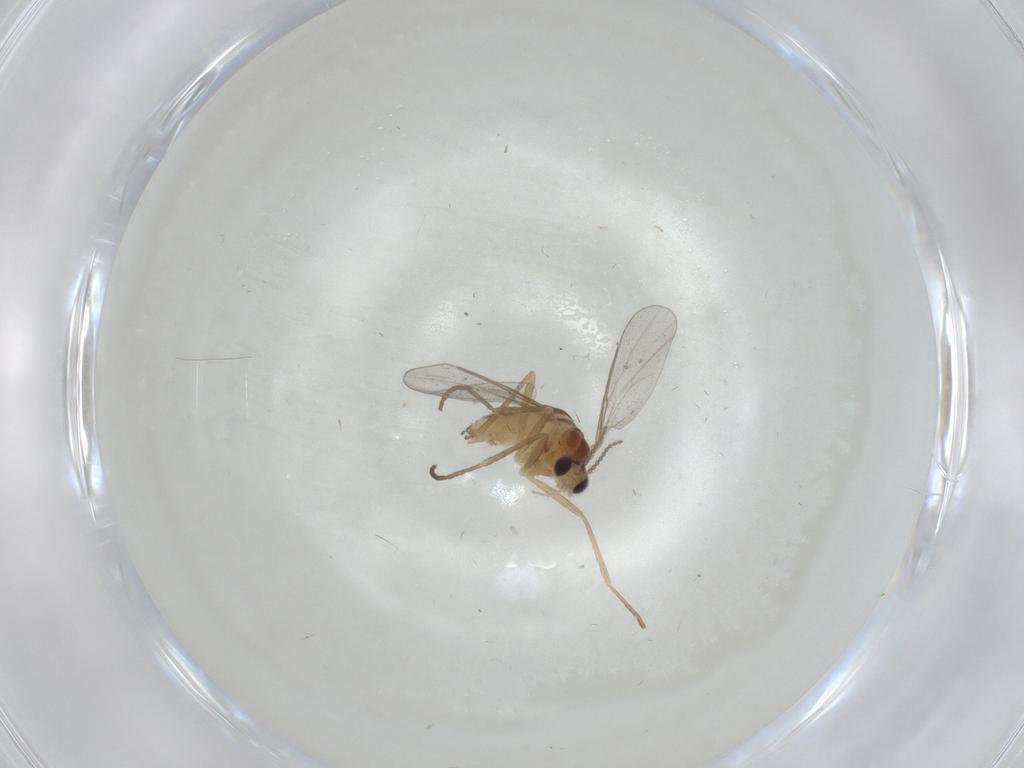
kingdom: Animalia
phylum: Arthropoda
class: Insecta
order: Diptera
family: Cecidomyiidae
